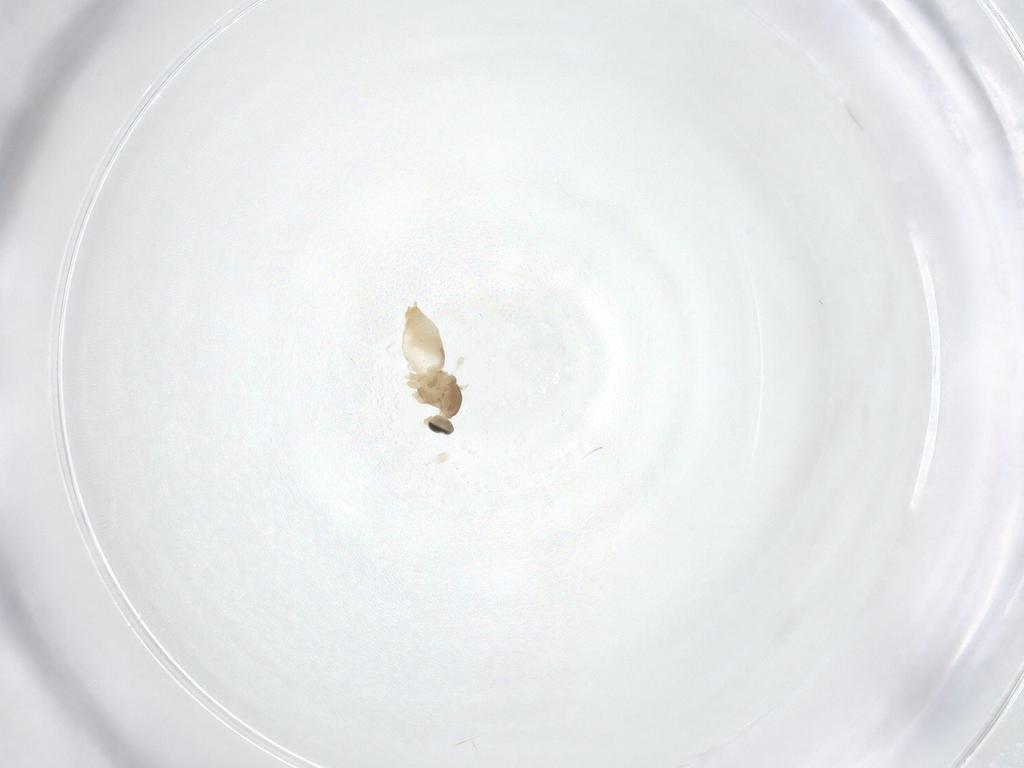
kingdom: Animalia
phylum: Arthropoda
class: Insecta
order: Diptera
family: Cecidomyiidae
